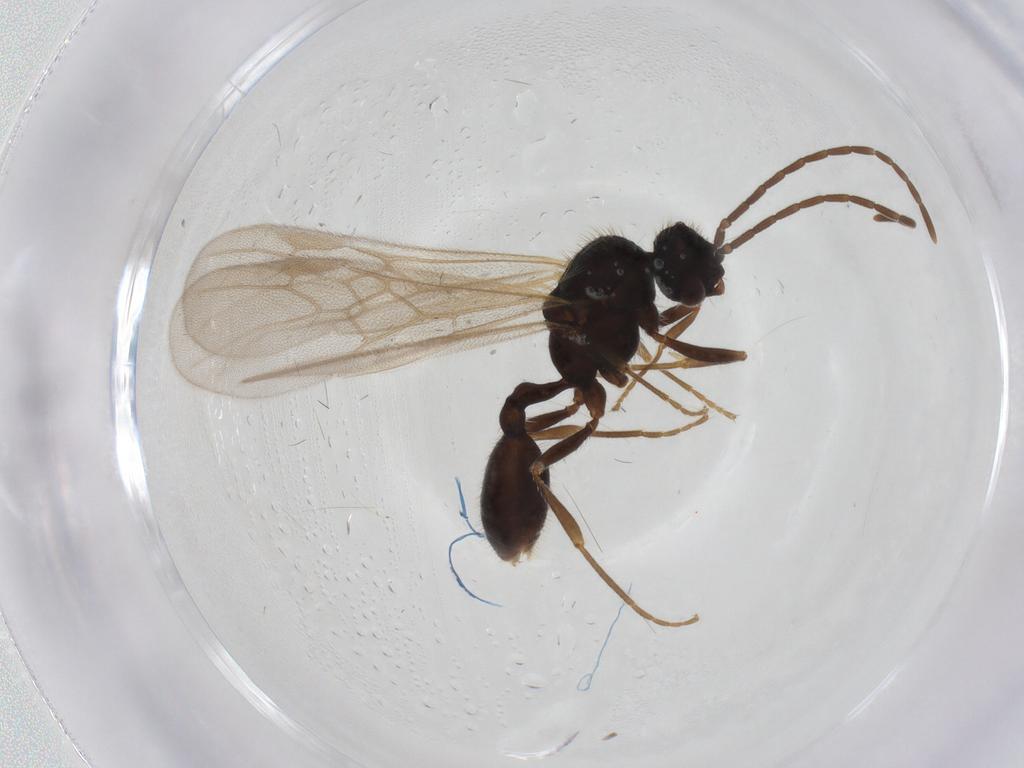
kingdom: Animalia
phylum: Arthropoda
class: Insecta
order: Hymenoptera
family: Formicidae
